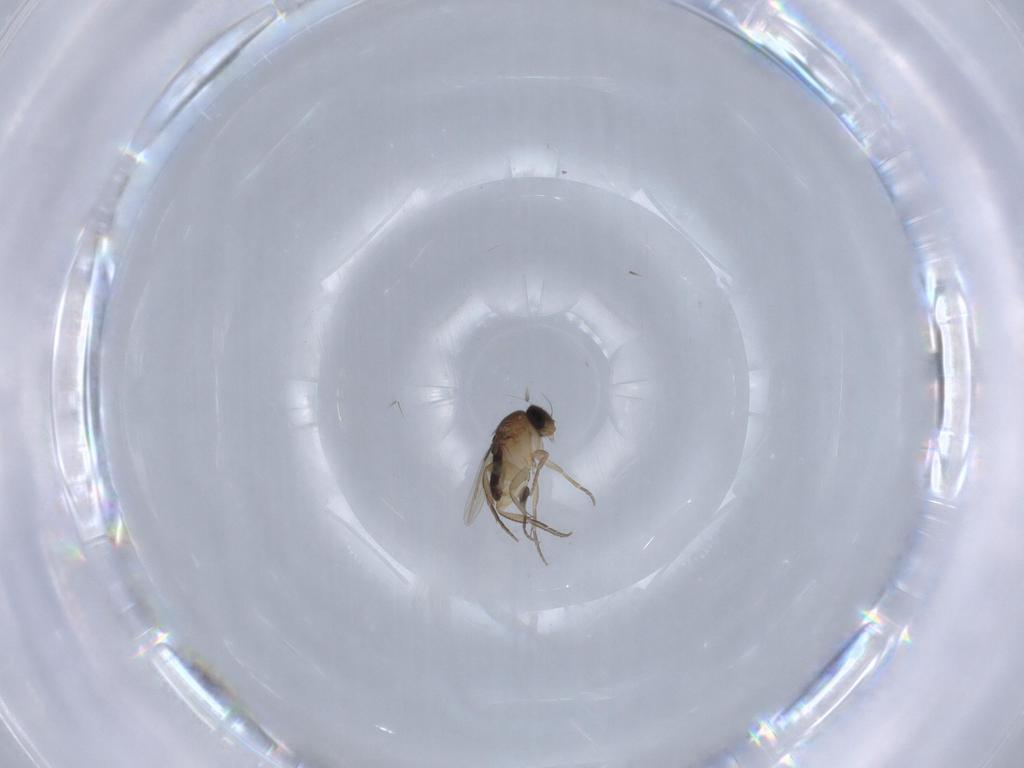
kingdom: Animalia
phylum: Arthropoda
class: Insecta
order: Diptera
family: Phoridae
